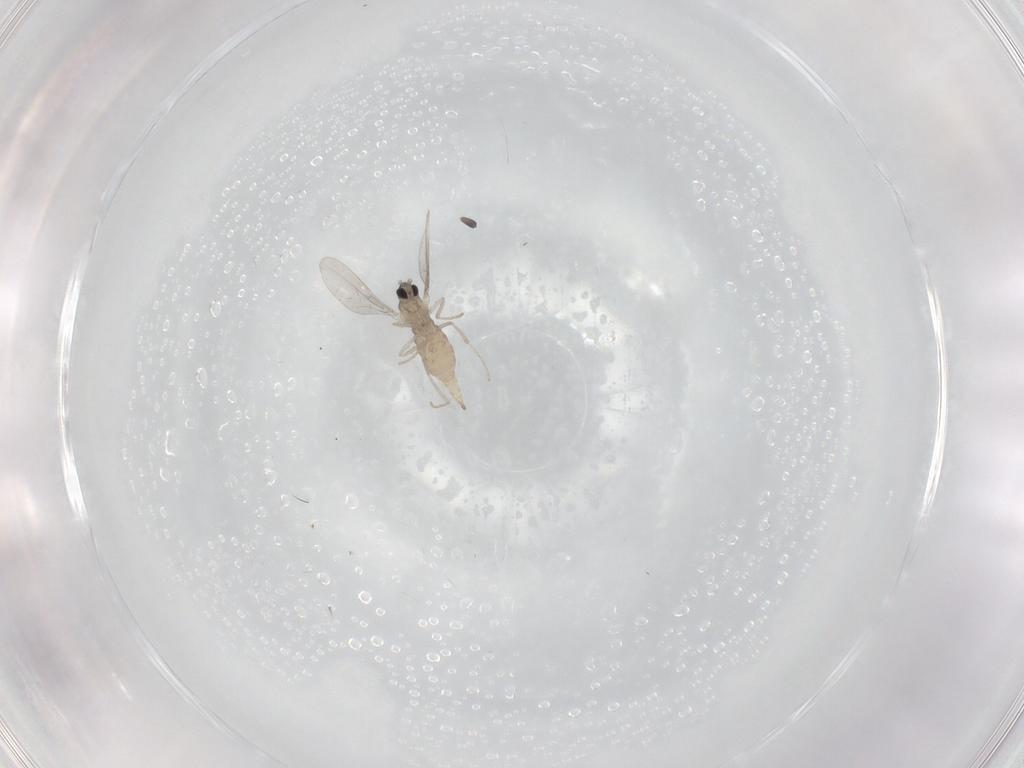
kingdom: Animalia
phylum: Arthropoda
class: Insecta
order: Diptera
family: Cecidomyiidae
